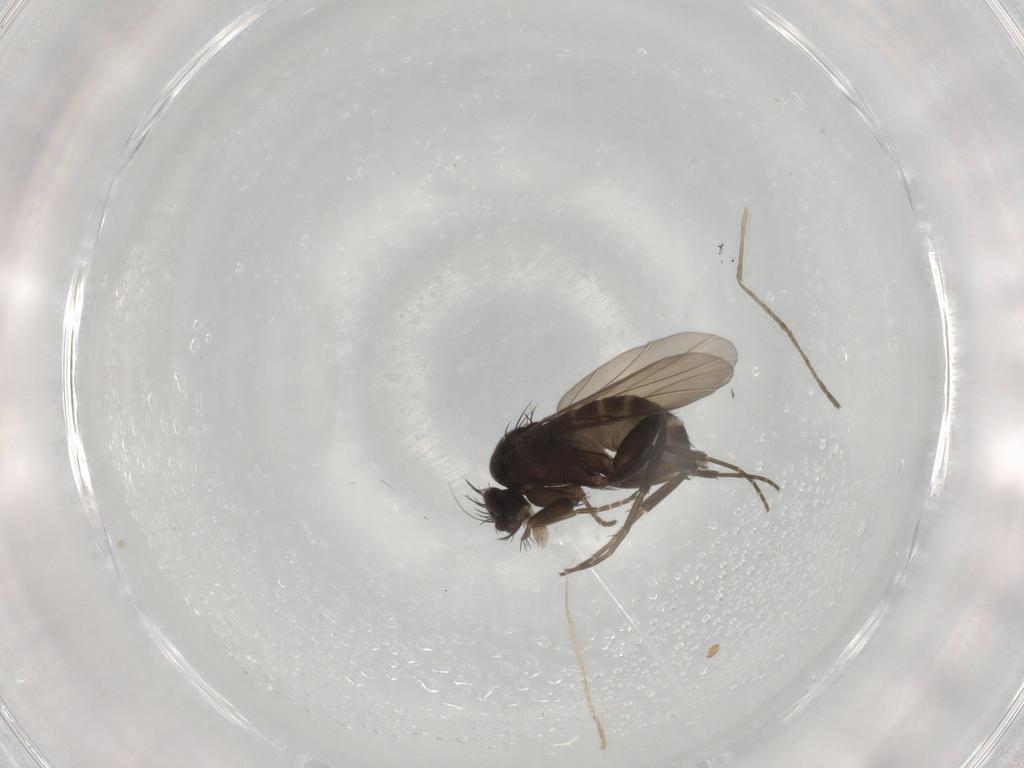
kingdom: Animalia
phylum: Arthropoda
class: Insecta
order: Diptera
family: Phoridae
